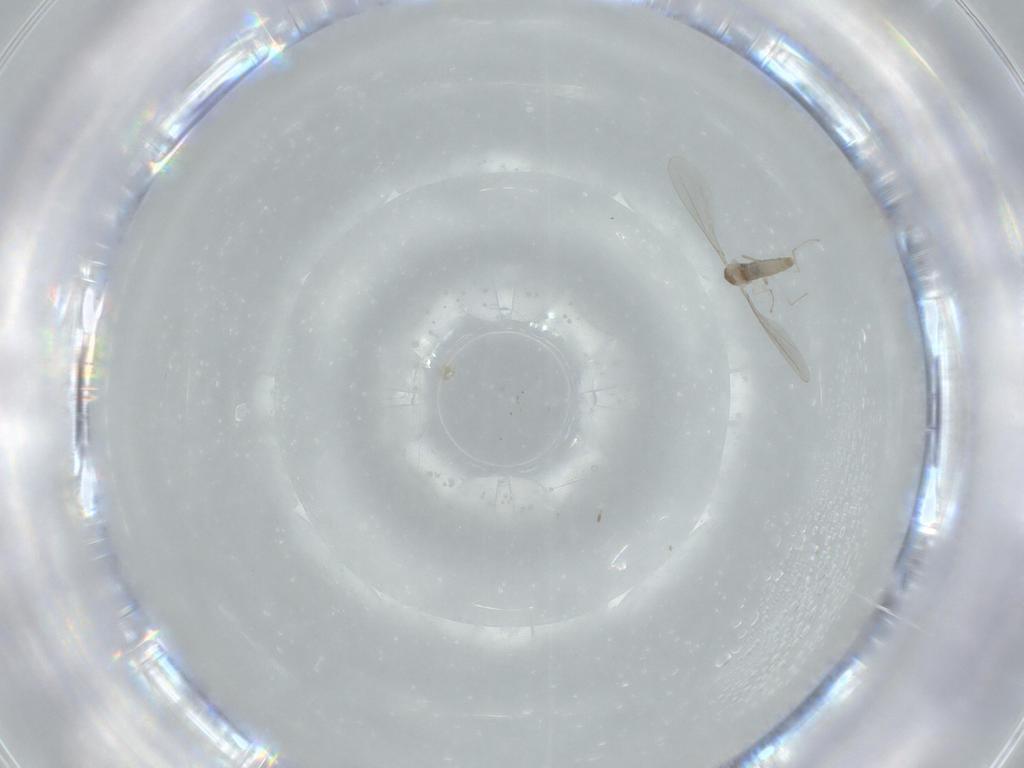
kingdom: Animalia
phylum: Arthropoda
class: Insecta
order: Diptera
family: Cecidomyiidae
